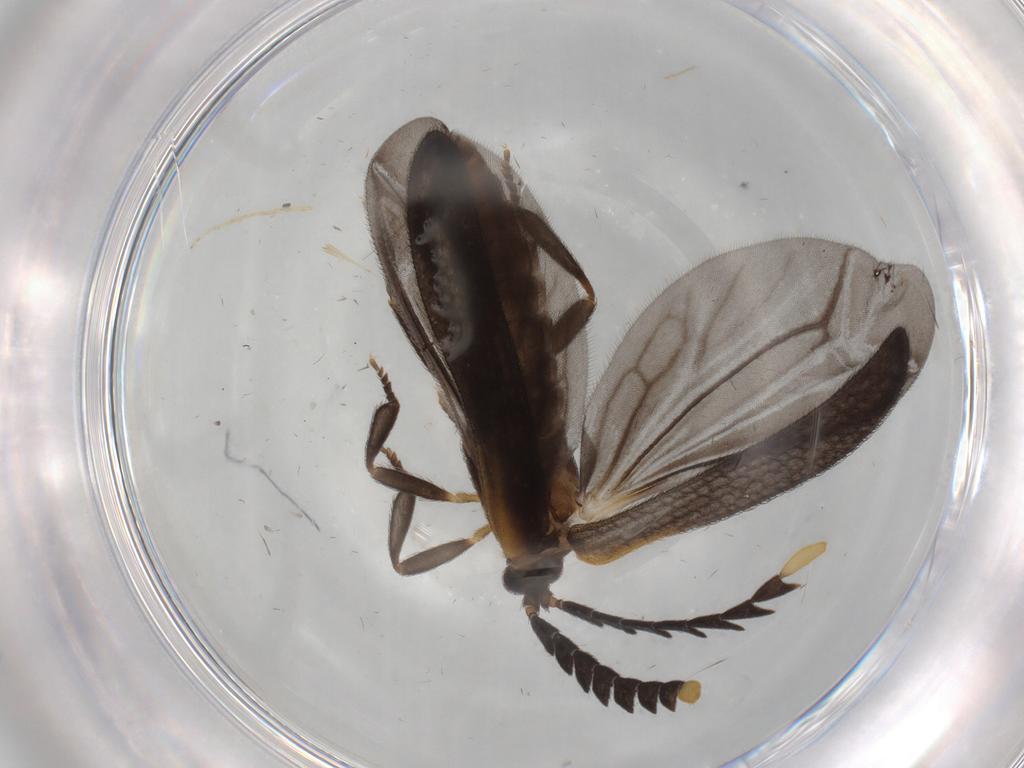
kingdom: Animalia
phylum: Arthropoda
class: Insecta
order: Coleoptera
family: Lycidae
